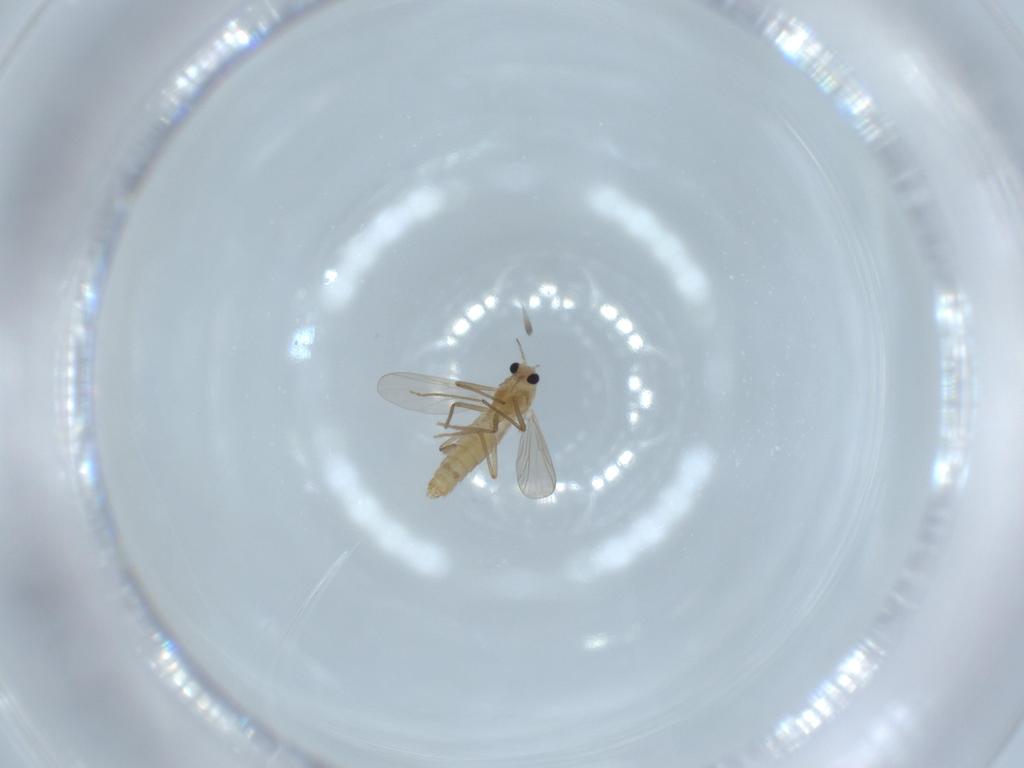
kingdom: Animalia
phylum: Arthropoda
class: Insecta
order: Diptera
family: Chironomidae
